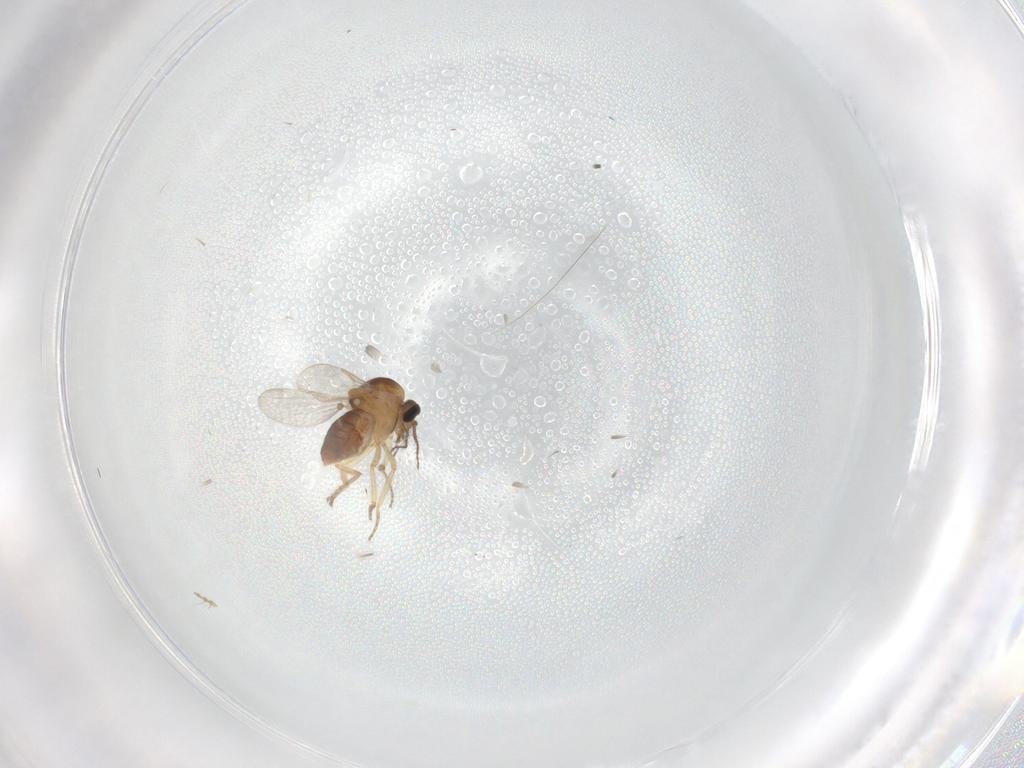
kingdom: Animalia
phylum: Arthropoda
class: Insecta
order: Diptera
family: Ceratopogonidae
